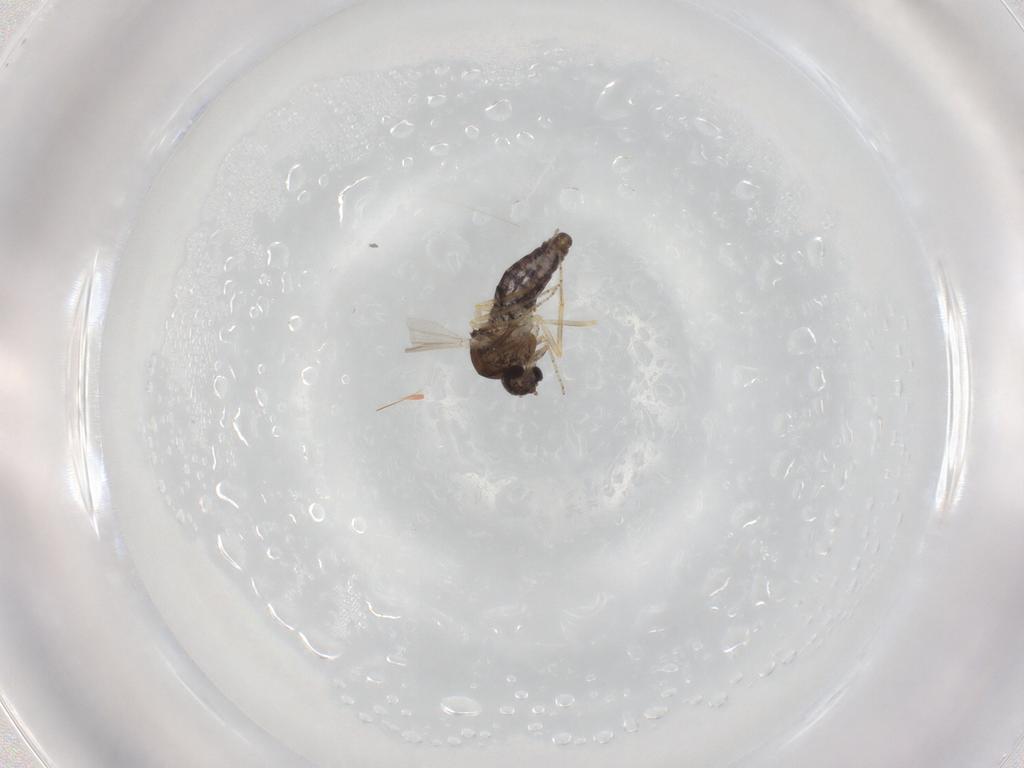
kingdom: Animalia
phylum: Arthropoda
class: Insecta
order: Diptera
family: Ceratopogonidae
